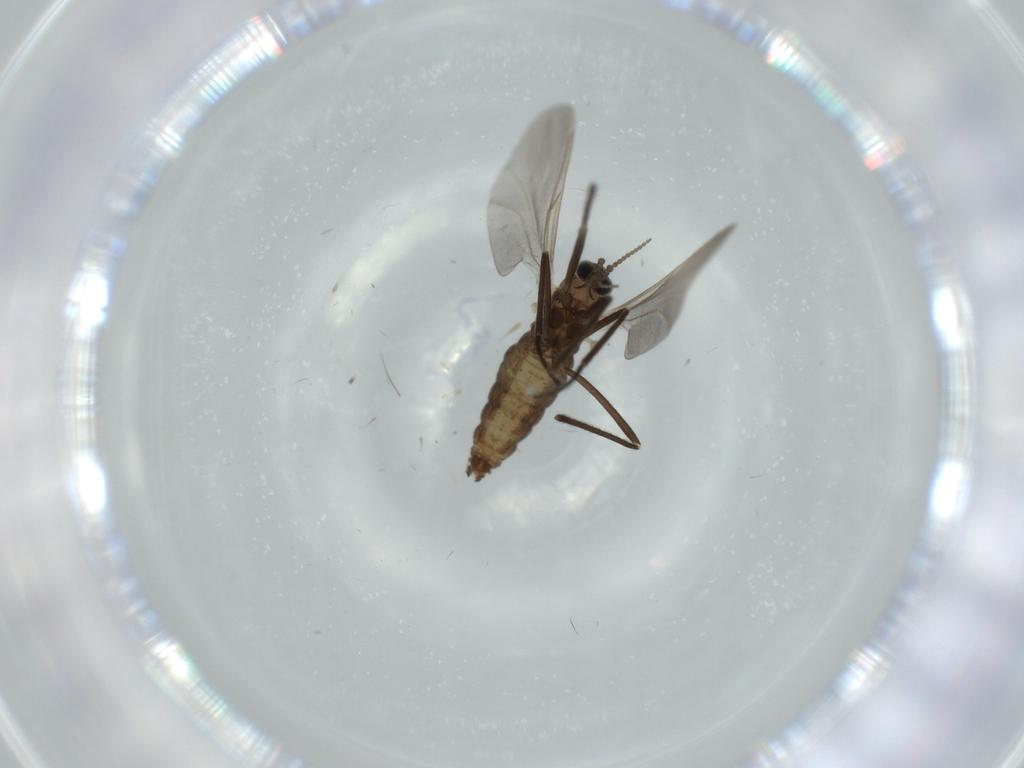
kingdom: Animalia
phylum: Arthropoda
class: Insecta
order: Diptera
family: Cecidomyiidae
